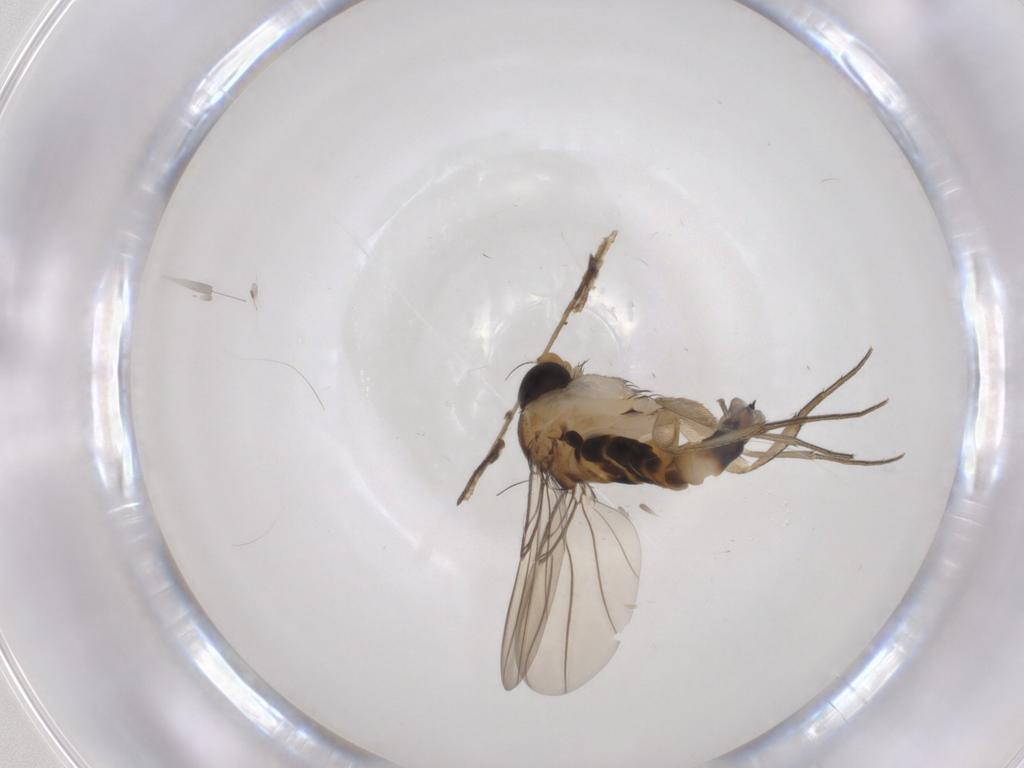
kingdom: Animalia
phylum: Arthropoda
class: Insecta
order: Diptera
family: Phoridae
